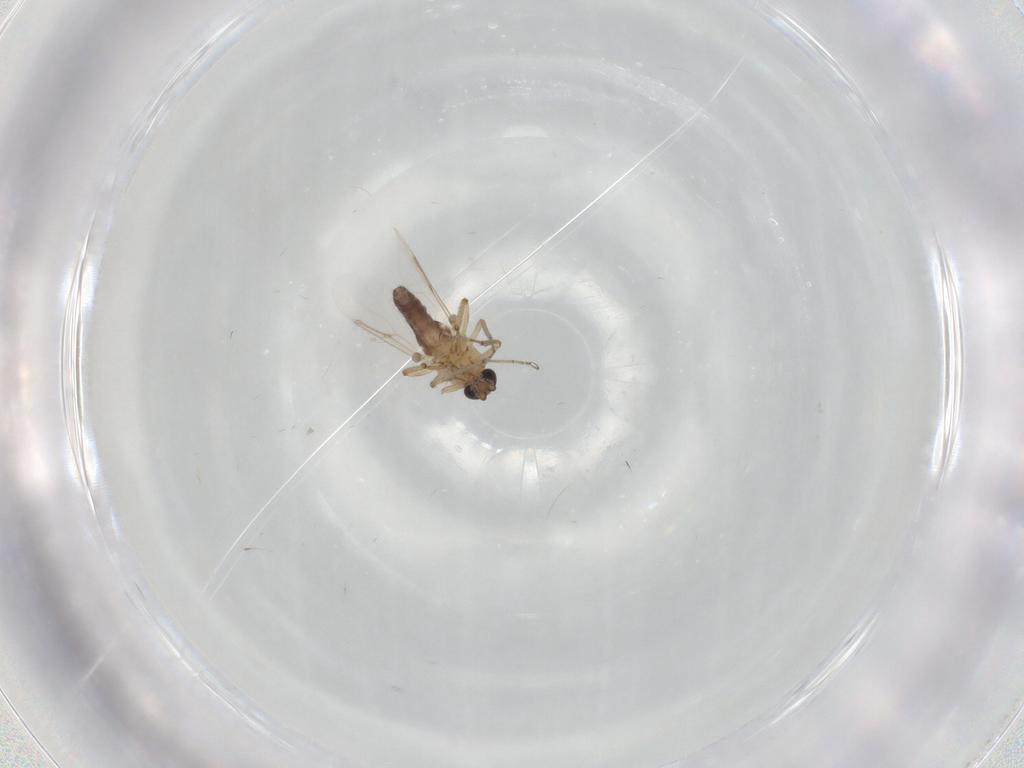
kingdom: Animalia
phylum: Arthropoda
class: Insecta
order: Diptera
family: Ceratopogonidae
